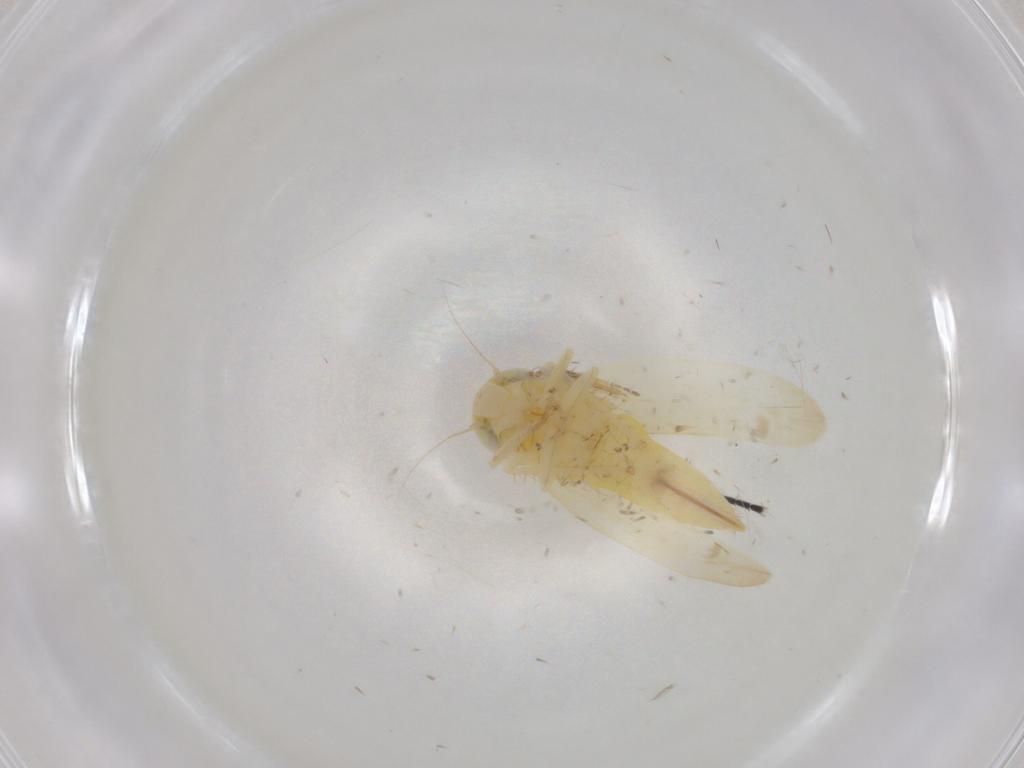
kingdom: Animalia
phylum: Arthropoda
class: Insecta
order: Hemiptera
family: Cicadellidae
